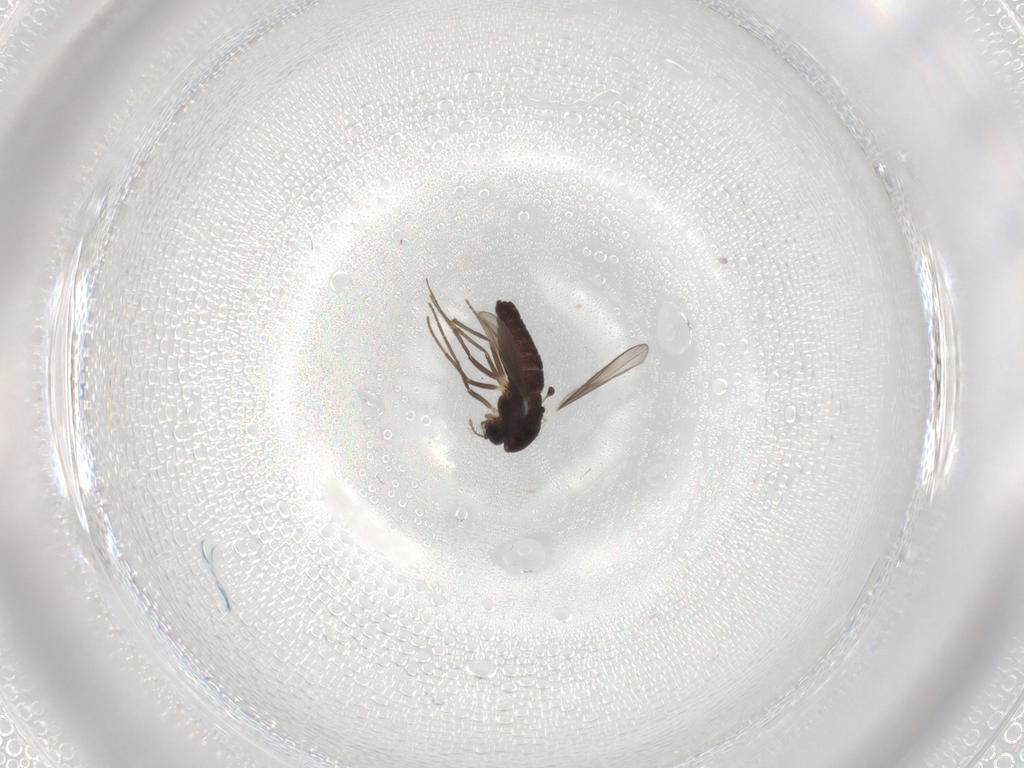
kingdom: Animalia
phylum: Arthropoda
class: Insecta
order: Diptera
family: Chironomidae
